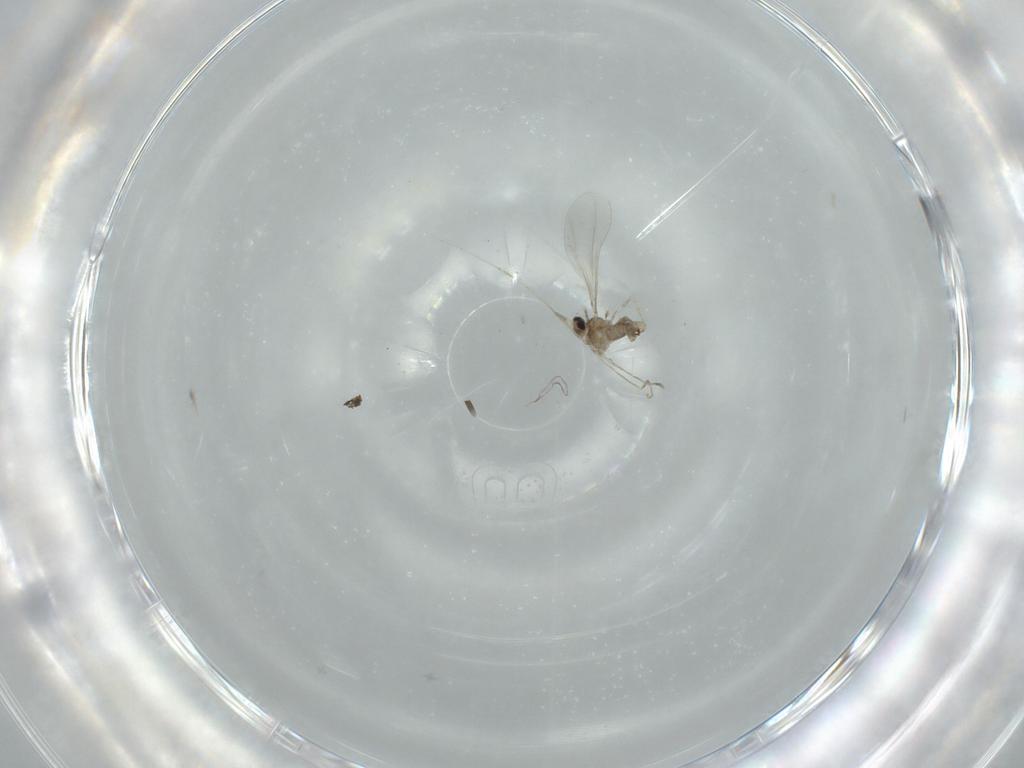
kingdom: Animalia
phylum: Arthropoda
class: Insecta
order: Diptera
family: Cecidomyiidae
